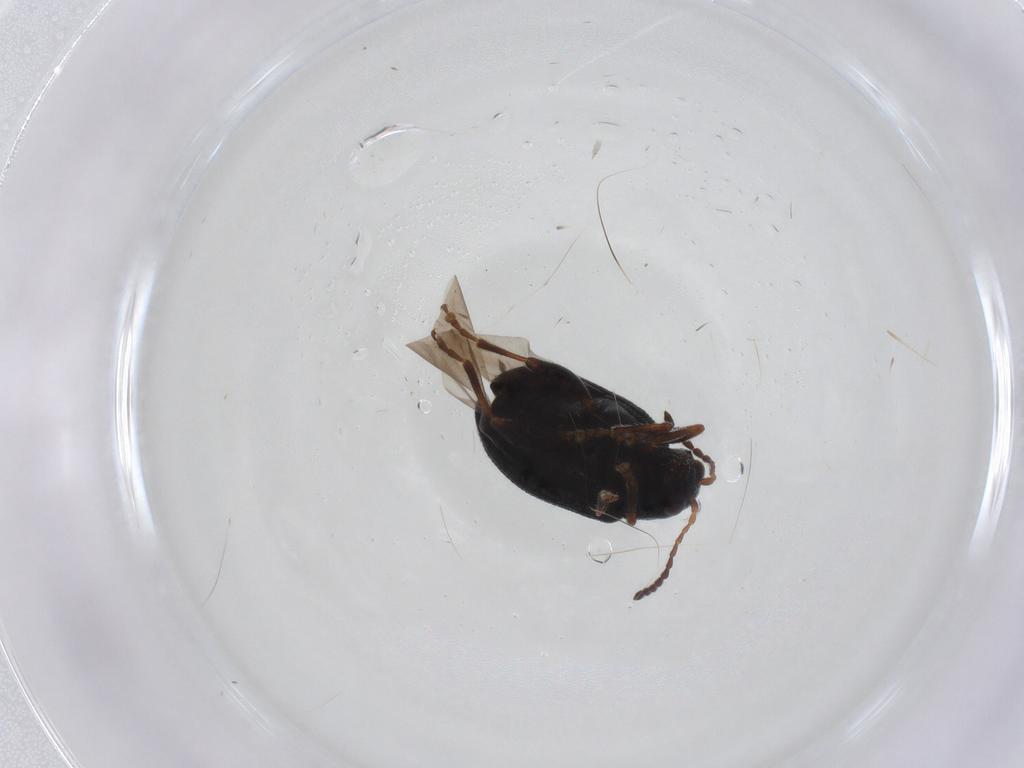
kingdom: Animalia
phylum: Arthropoda
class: Insecta
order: Coleoptera
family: Chrysomelidae
